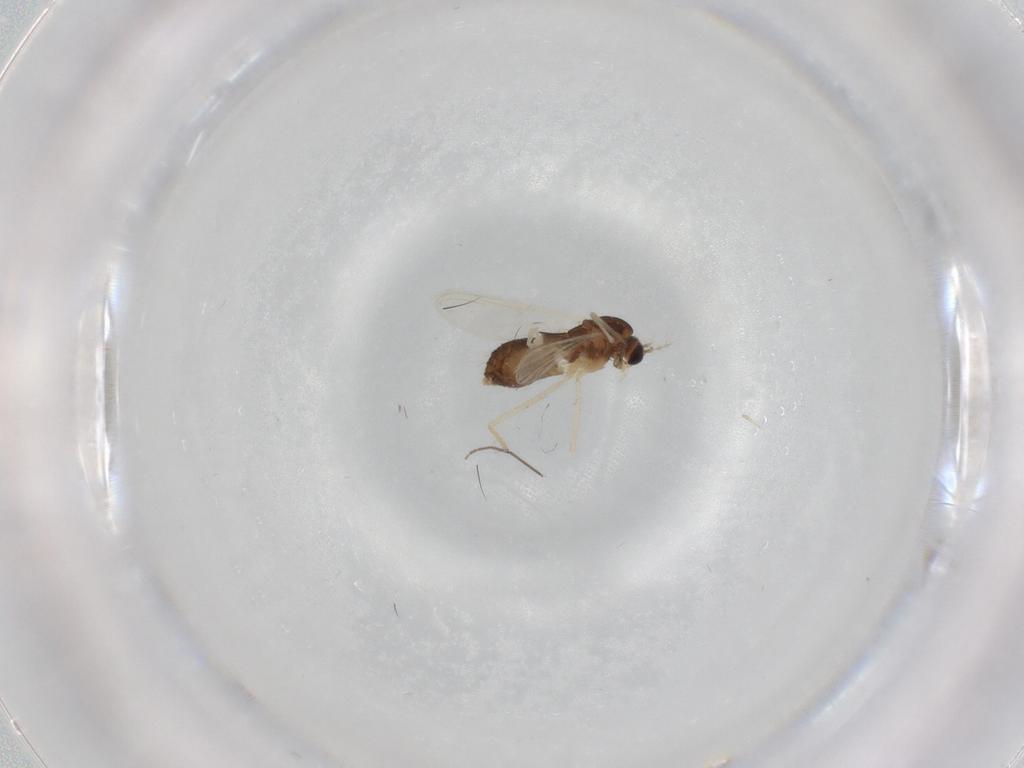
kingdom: Animalia
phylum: Arthropoda
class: Insecta
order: Diptera
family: Chironomidae
